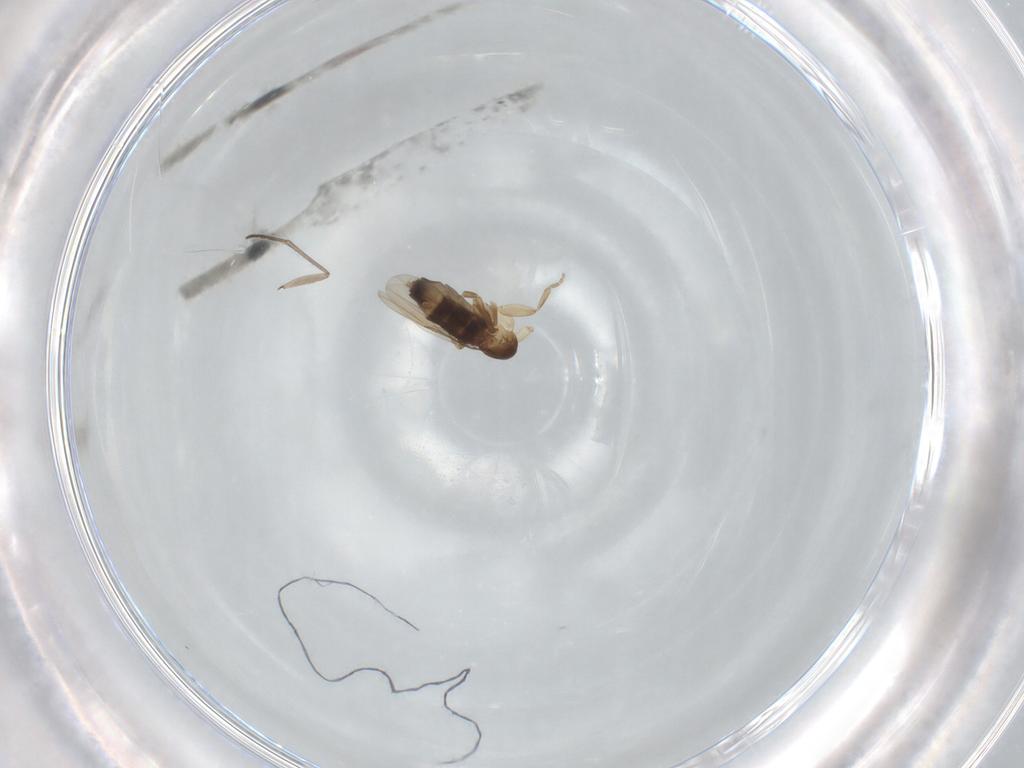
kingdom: Animalia
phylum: Arthropoda
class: Insecta
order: Diptera
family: Phoridae
